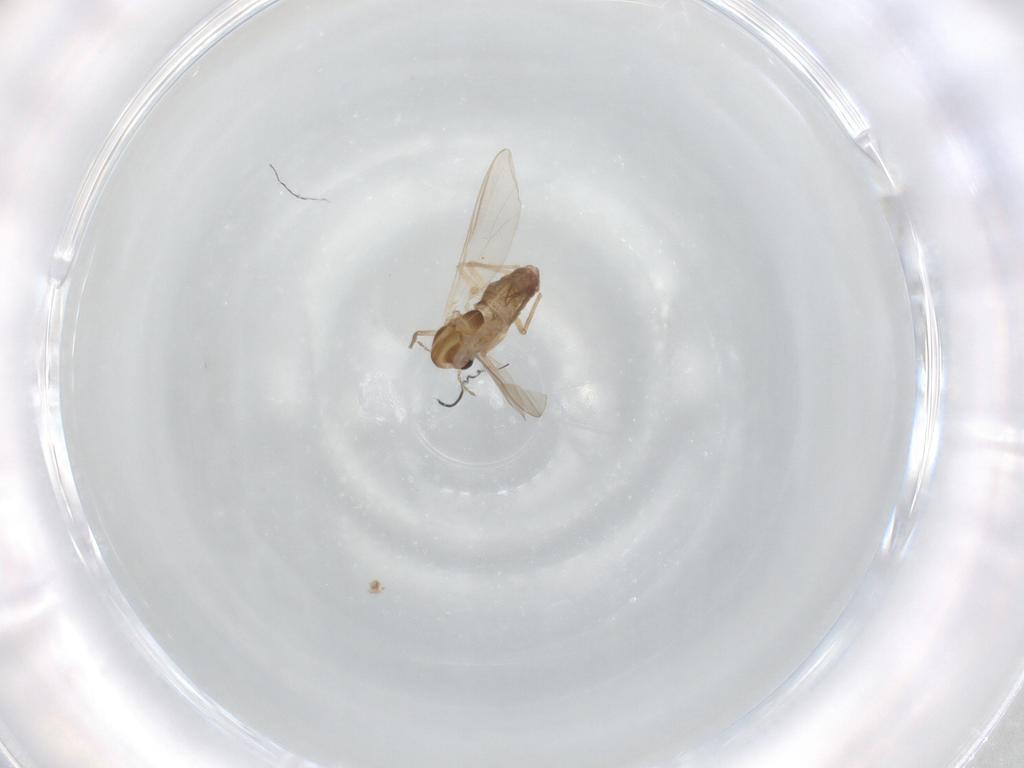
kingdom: Animalia
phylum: Arthropoda
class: Insecta
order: Diptera
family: Chironomidae
